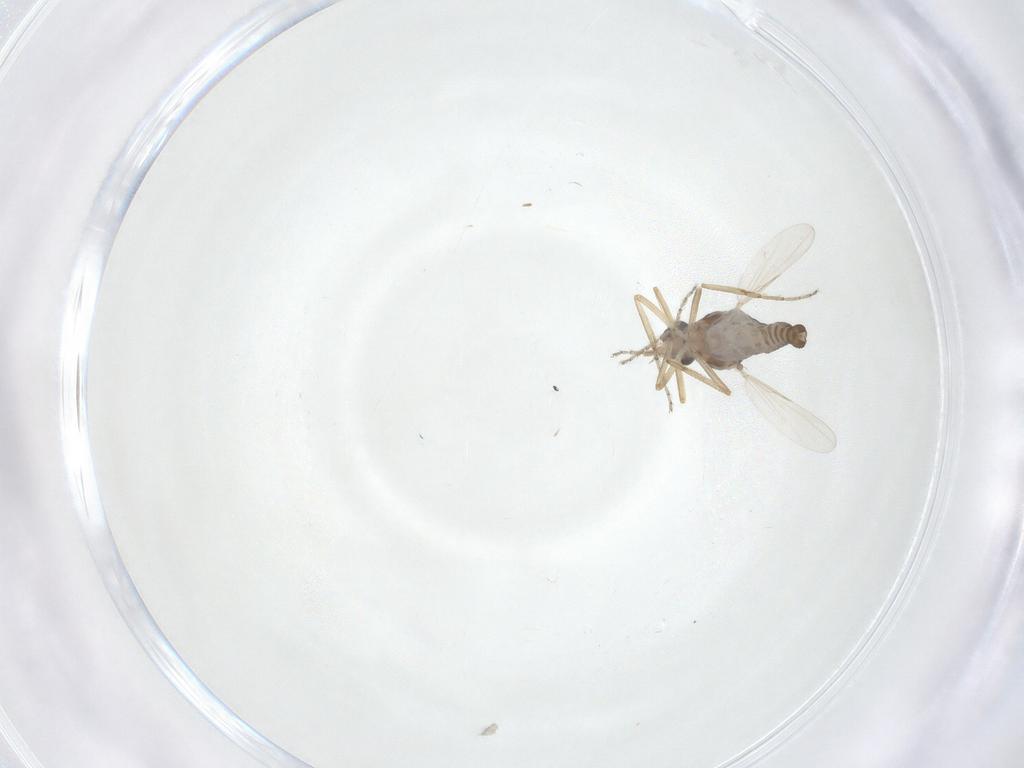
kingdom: Animalia
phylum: Arthropoda
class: Insecta
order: Diptera
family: Ceratopogonidae
